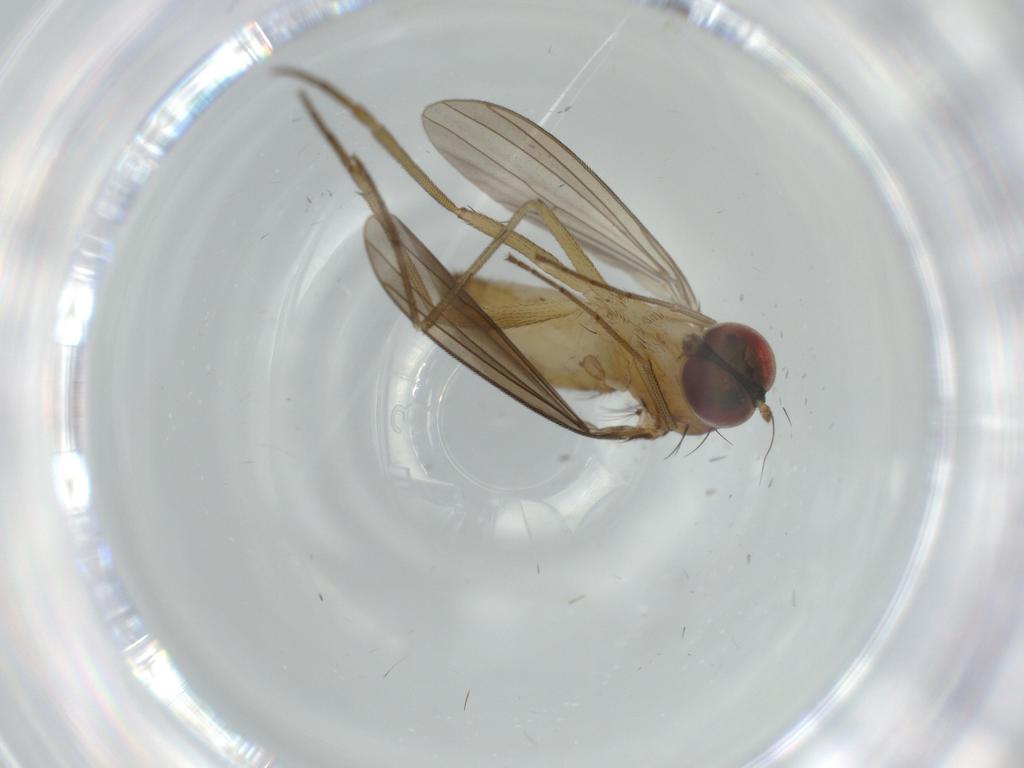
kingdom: Animalia
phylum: Arthropoda
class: Insecta
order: Diptera
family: Dolichopodidae
